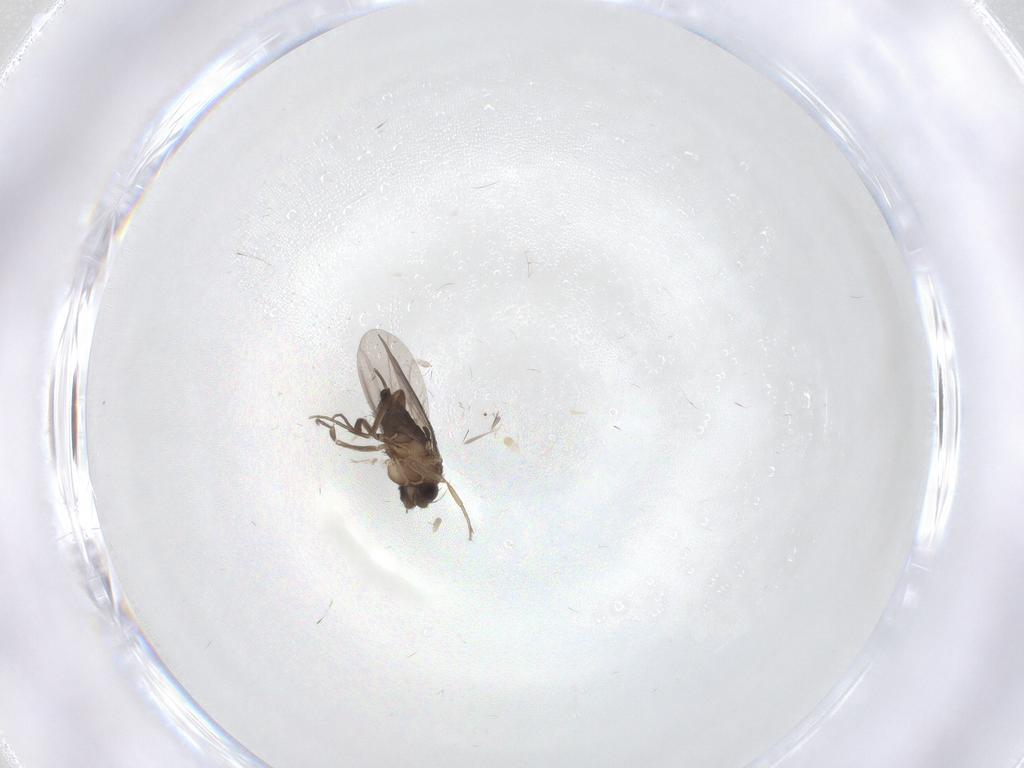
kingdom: Animalia
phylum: Arthropoda
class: Insecta
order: Diptera
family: Phoridae
